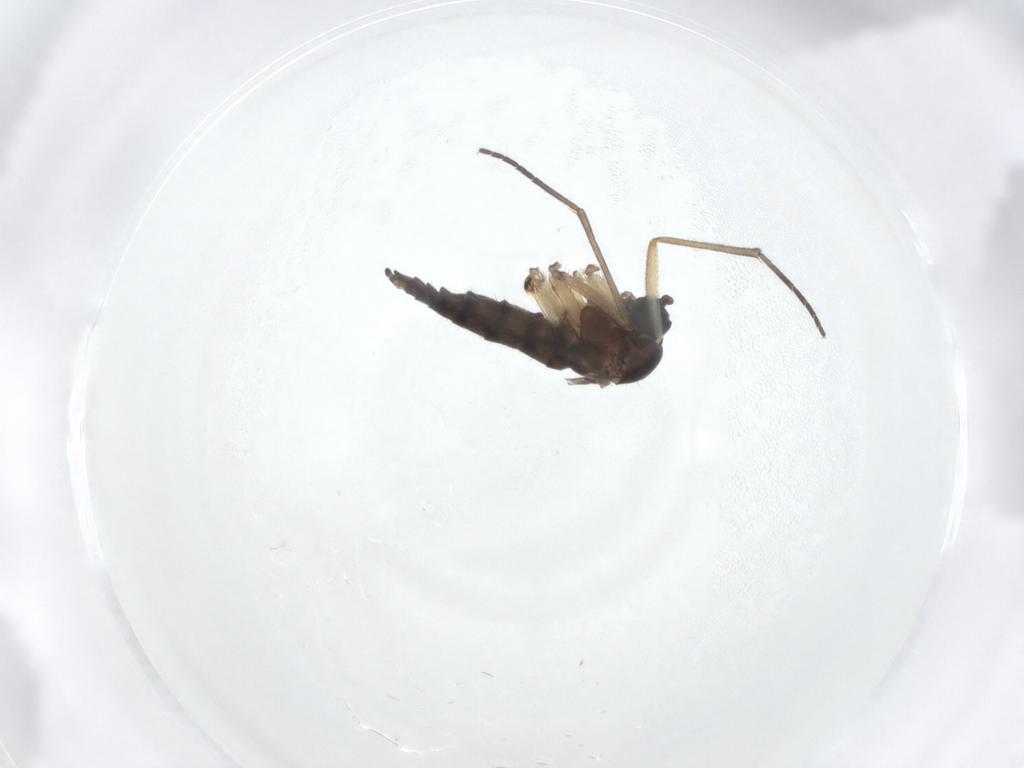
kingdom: Animalia
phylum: Arthropoda
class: Insecta
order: Diptera
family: Sciaridae
